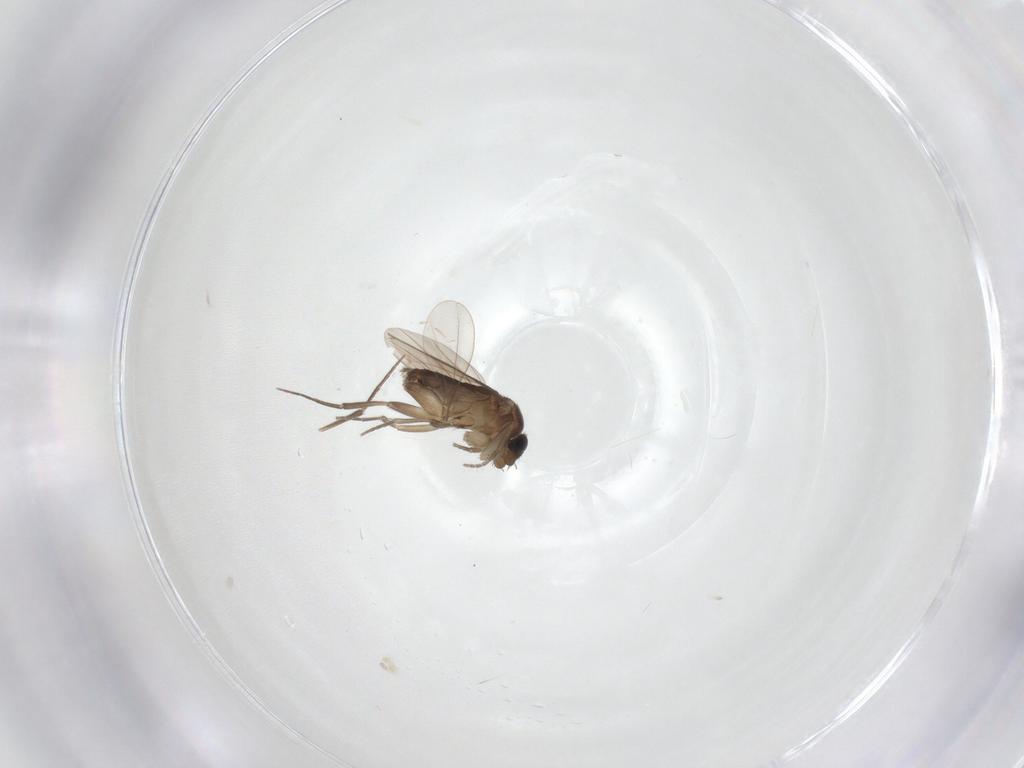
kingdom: Animalia
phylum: Arthropoda
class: Insecta
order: Diptera
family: Phoridae
